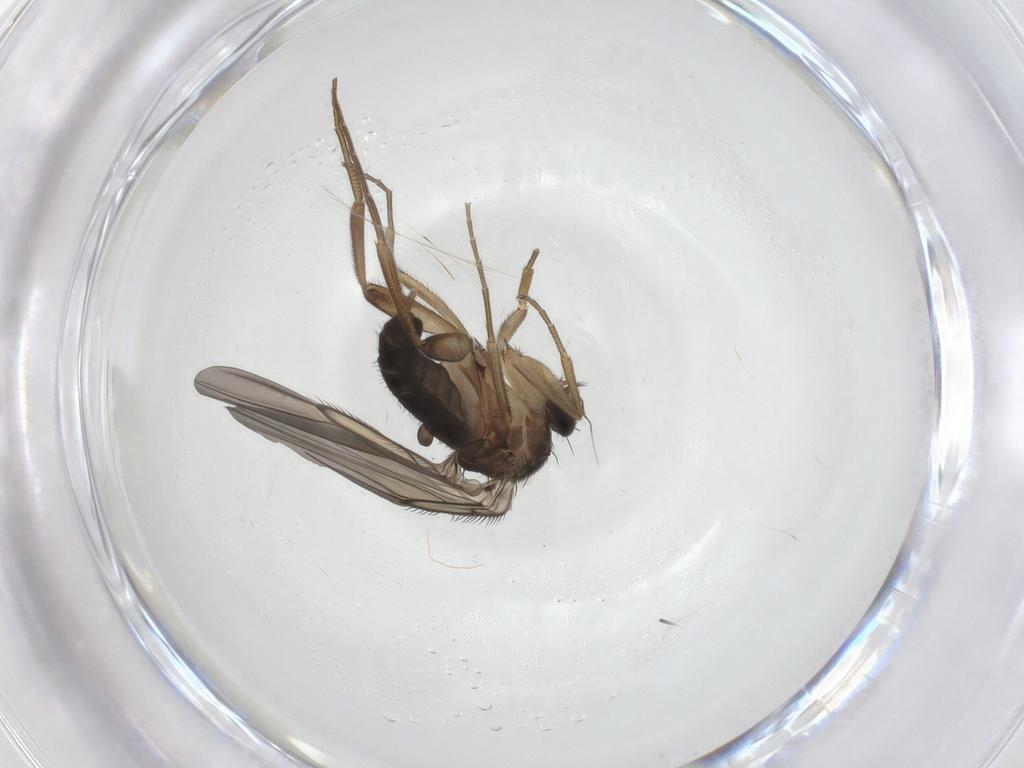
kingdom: Animalia
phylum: Arthropoda
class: Insecta
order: Diptera
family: Phoridae
